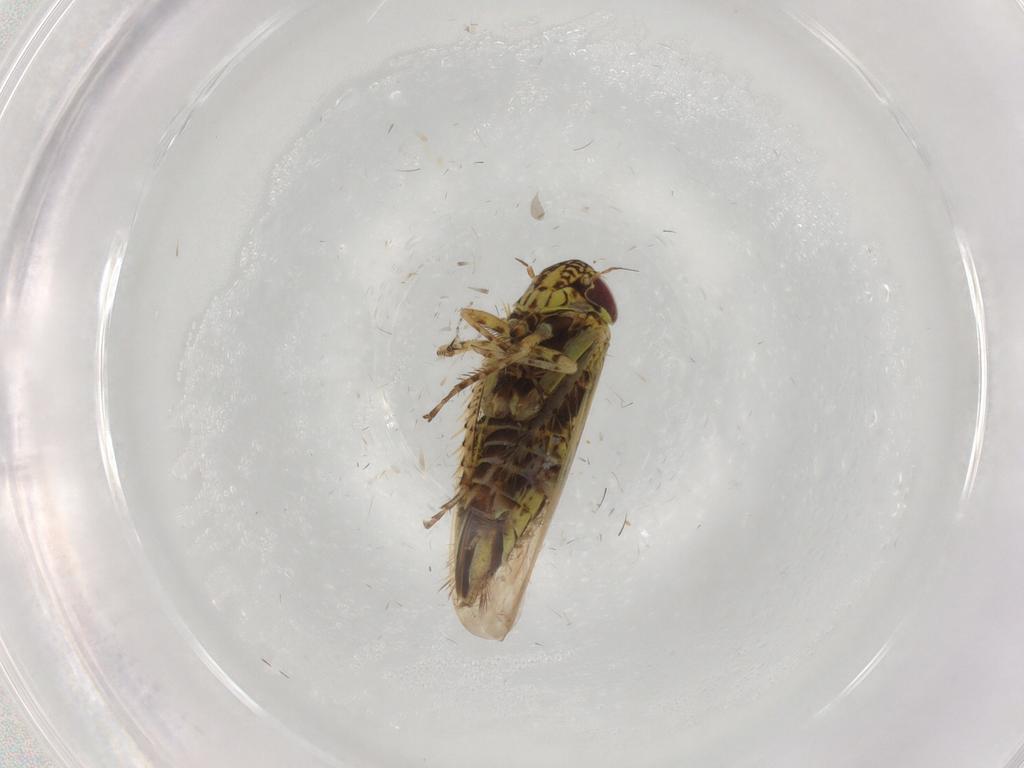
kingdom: Animalia
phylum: Arthropoda
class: Insecta
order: Hemiptera
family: Cicadellidae
